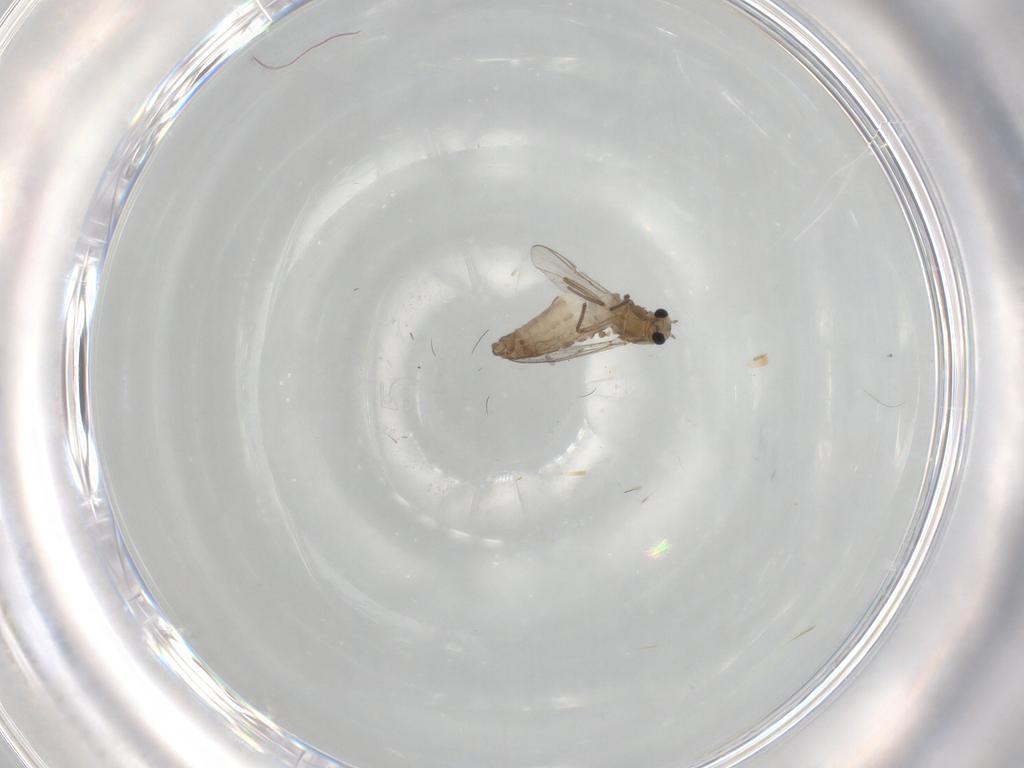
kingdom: Animalia
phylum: Arthropoda
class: Insecta
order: Diptera
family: Chironomidae
